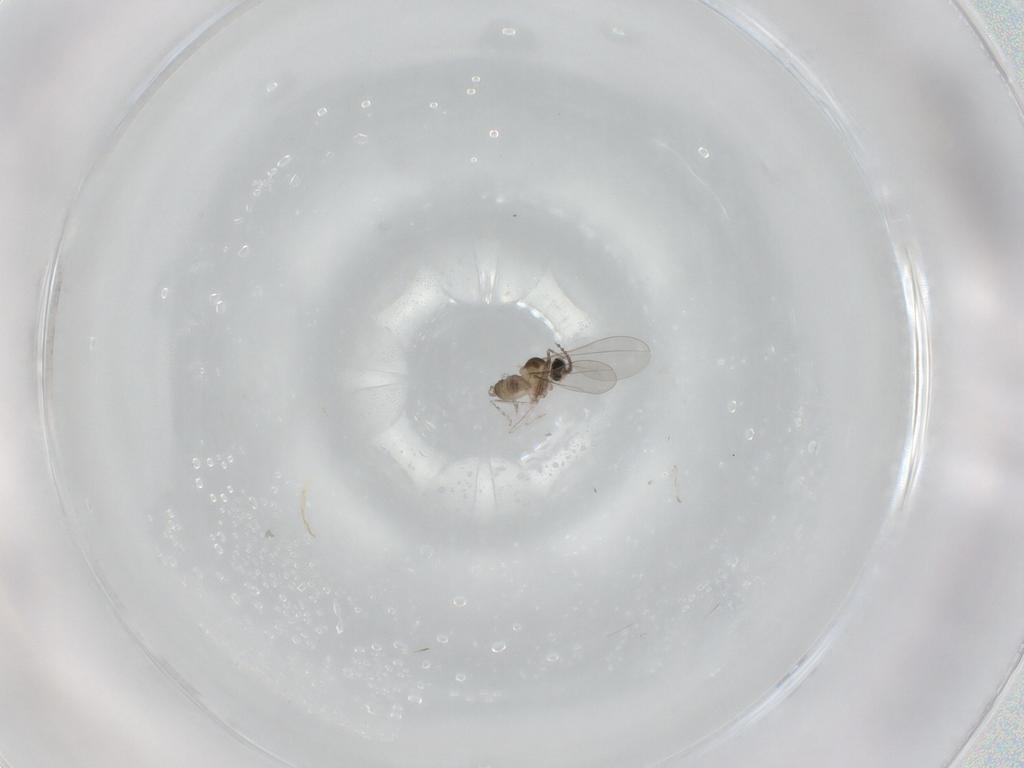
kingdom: Animalia
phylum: Arthropoda
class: Insecta
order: Diptera
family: Cecidomyiidae
